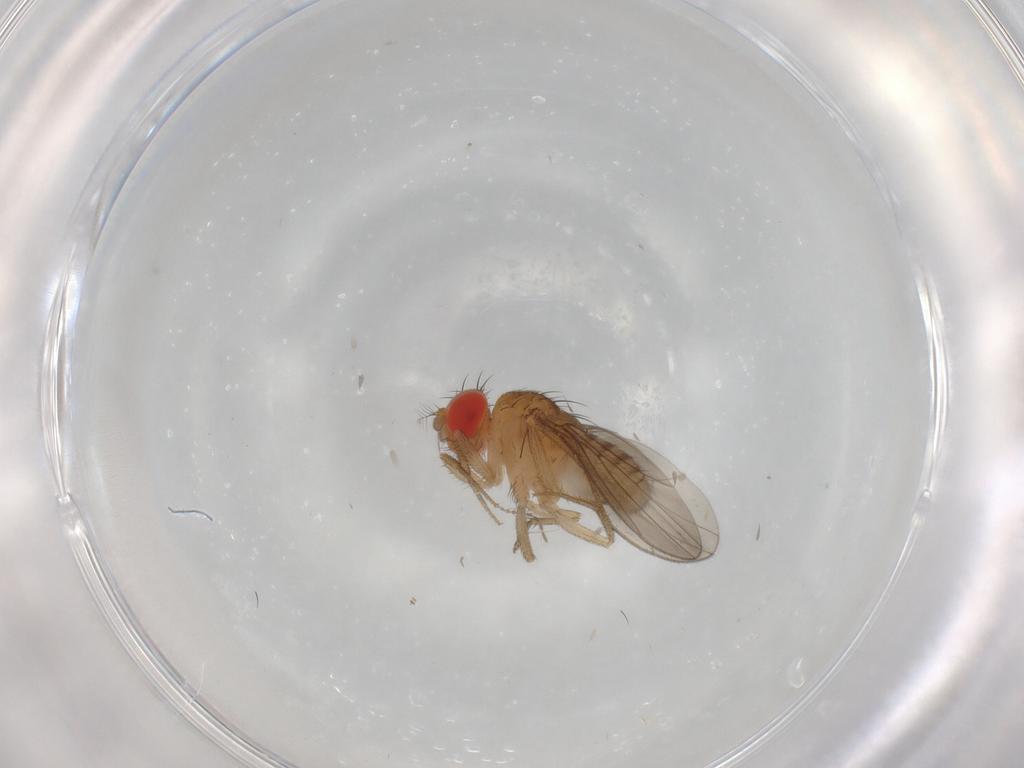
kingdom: Animalia
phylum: Arthropoda
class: Insecta
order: Diptera
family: Drosophilidae
